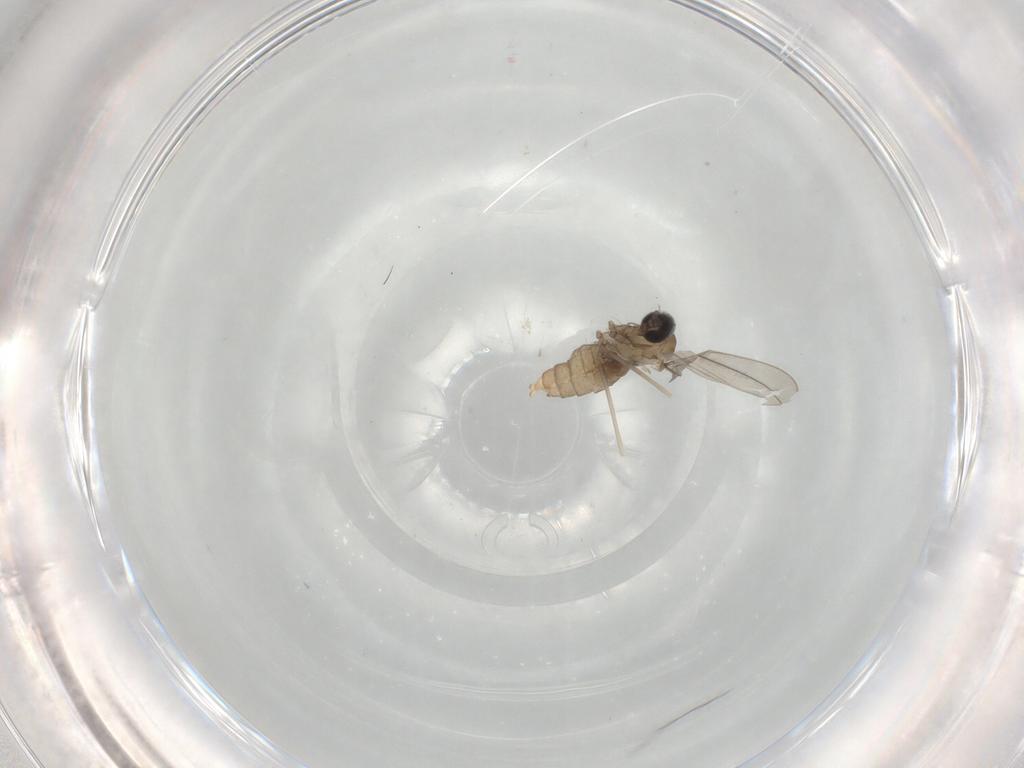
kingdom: Animalia
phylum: Arthropoda
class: Insecta
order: Diptera
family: Cecidomyiidae
